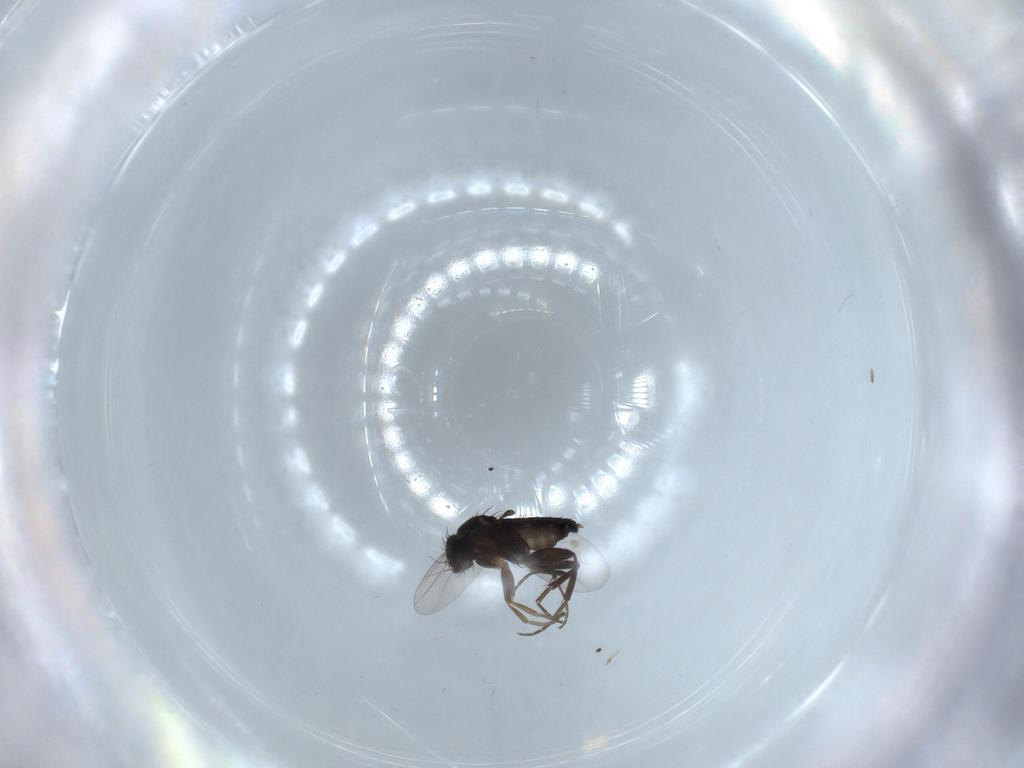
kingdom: Animalia
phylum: Arthropoda
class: Insecta
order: Diptera
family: Phoridae
